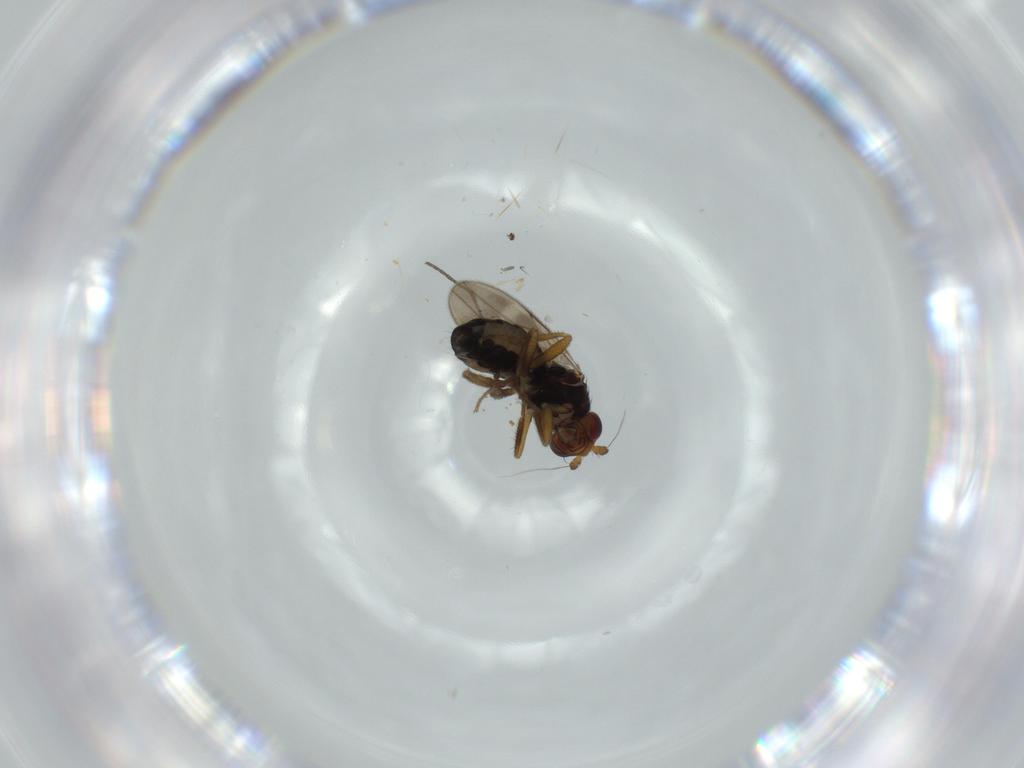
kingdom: Animalia
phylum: Arthropoda
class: Insecta
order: Diptera
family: Sphaeroceridae
